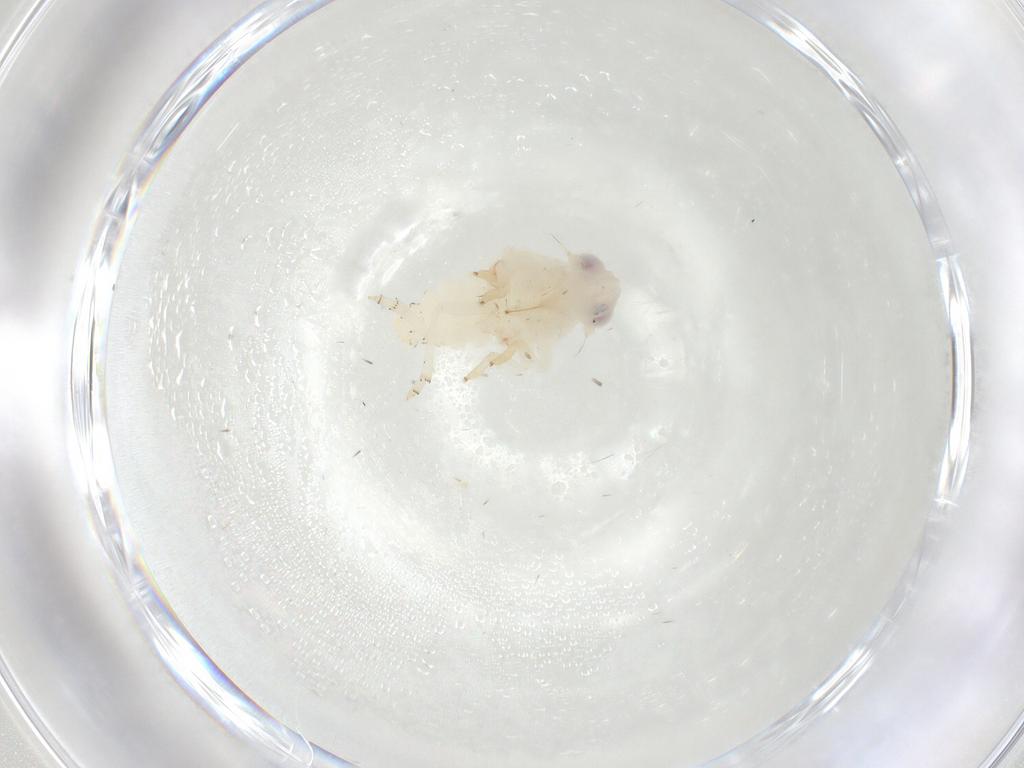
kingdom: Animalia
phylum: Arthropoda
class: Insecta
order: Hemiptera
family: Nogodinidae
